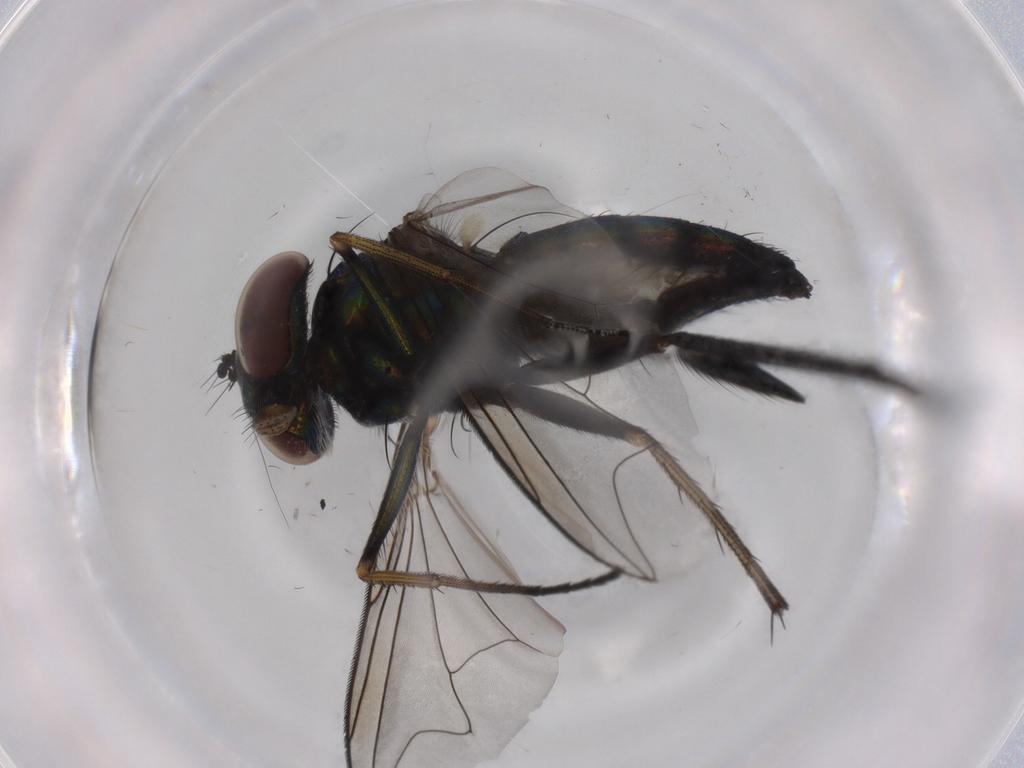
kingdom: Animalia
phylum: Arthropoda
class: Insecta
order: Diptera
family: Dolichopodidae
